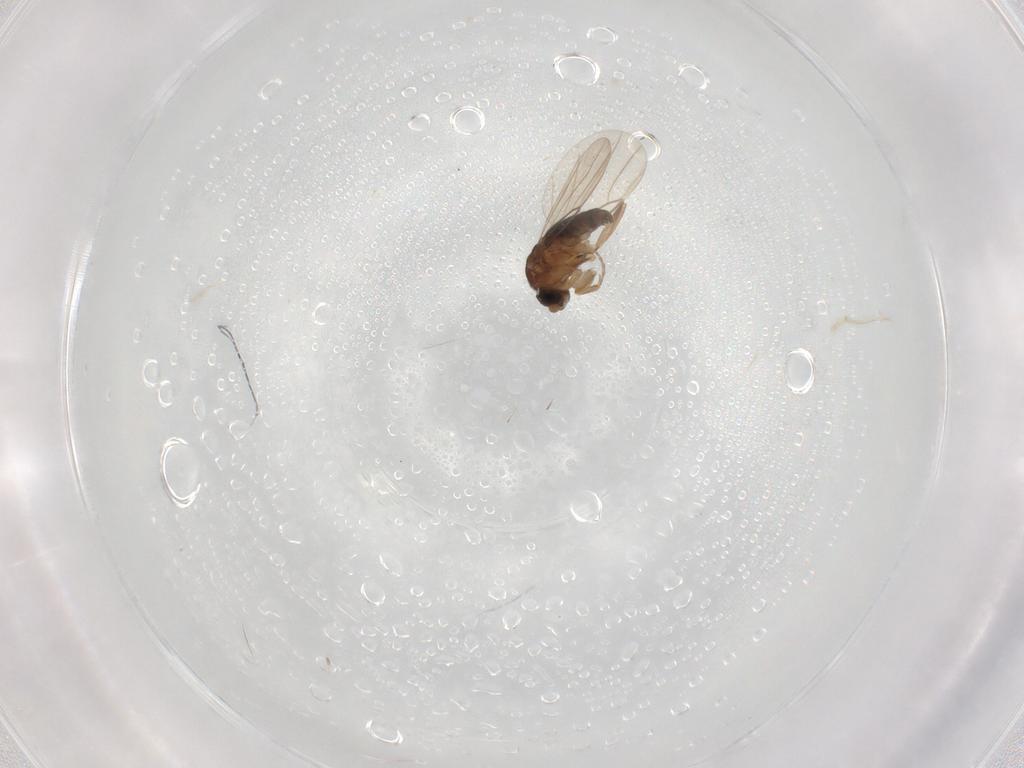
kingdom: Animalia
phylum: Arthropoda
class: Insecta
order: Diptera
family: Phoridae
